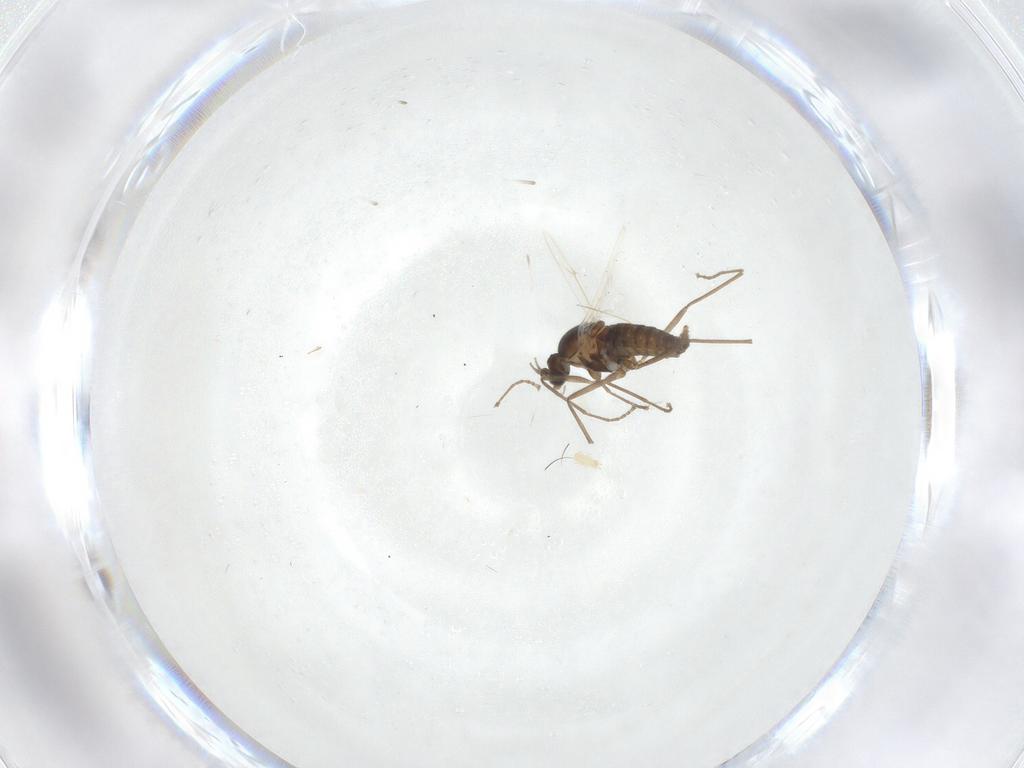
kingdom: Animalia
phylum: Arthropoda
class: Insecta
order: Diptera
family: Cecidomyiidae
